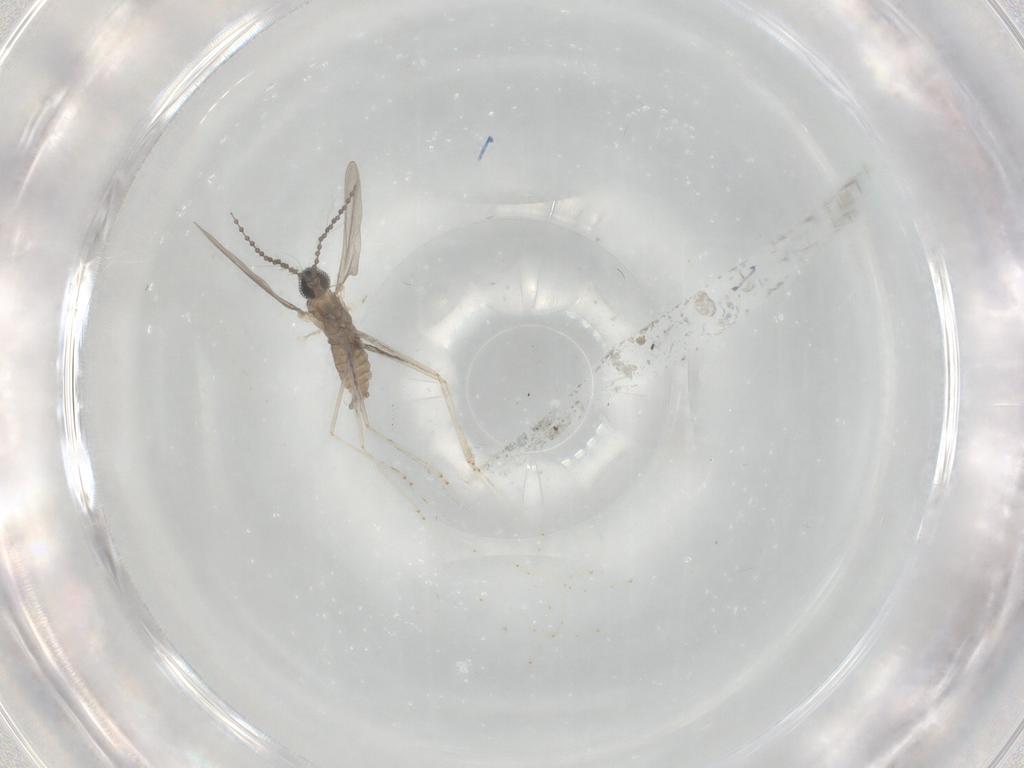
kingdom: Animalia
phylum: Arthropoda
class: Insecta
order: Diptera
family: Cecidomyiidae
